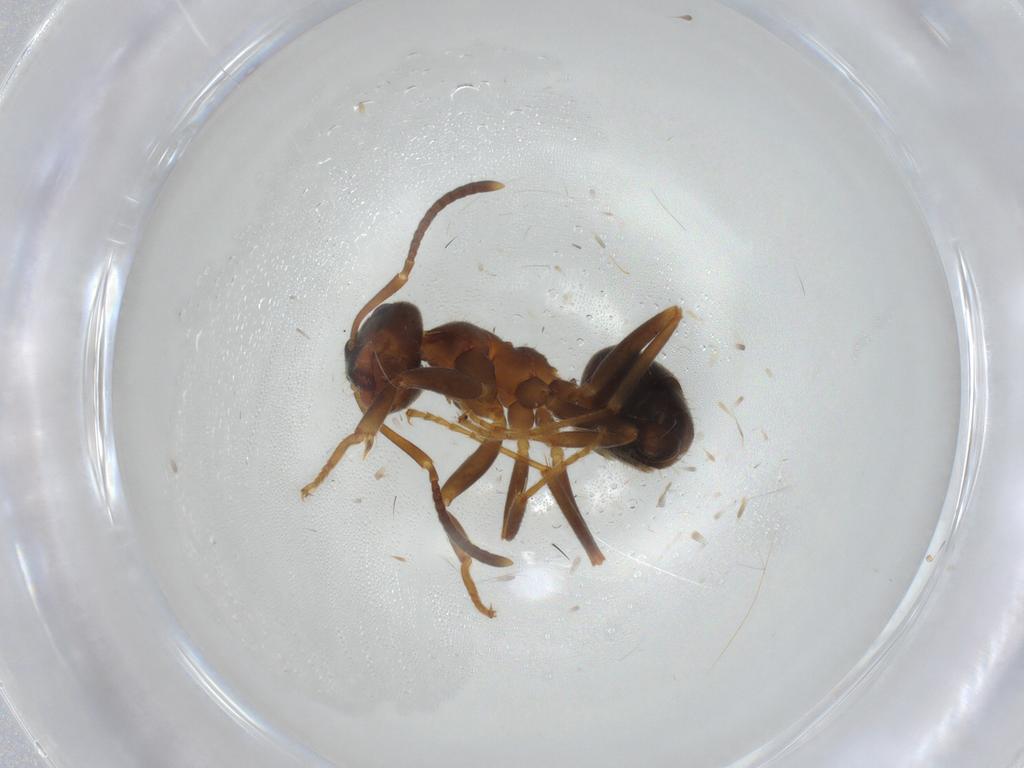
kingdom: Animalia
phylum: Arthropoda
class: Insecta
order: Hymenoptera
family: Formicidae
